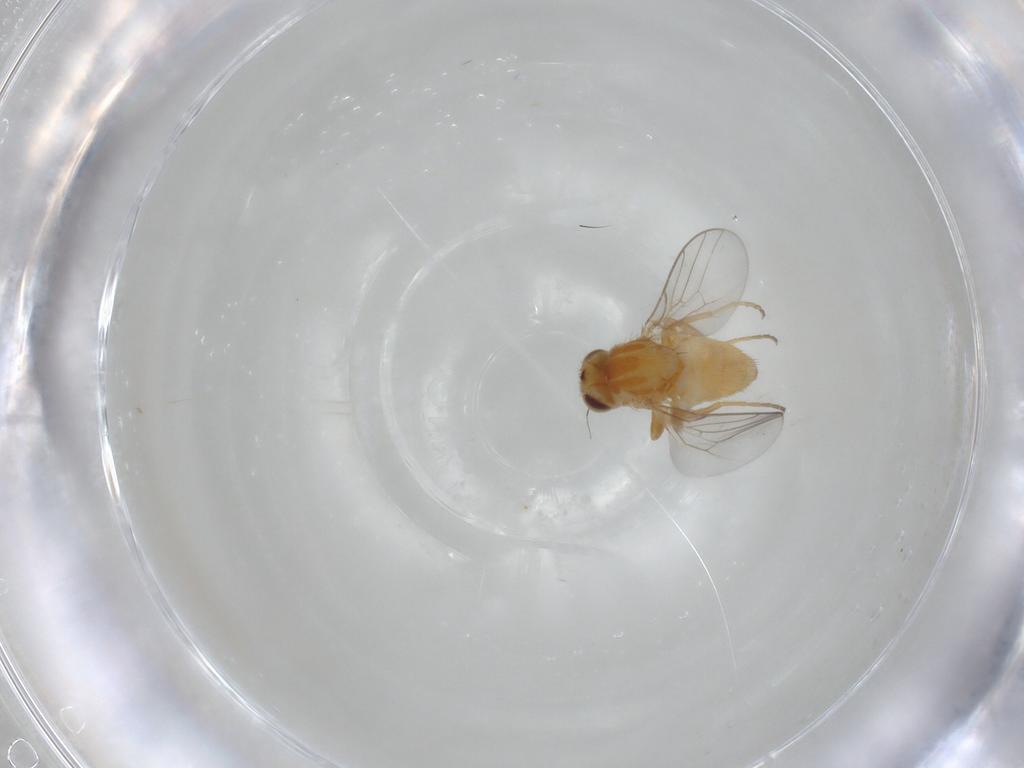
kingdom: Animalia
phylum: Arthropoda
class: Insecta
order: Diptera
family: Chloropidae
